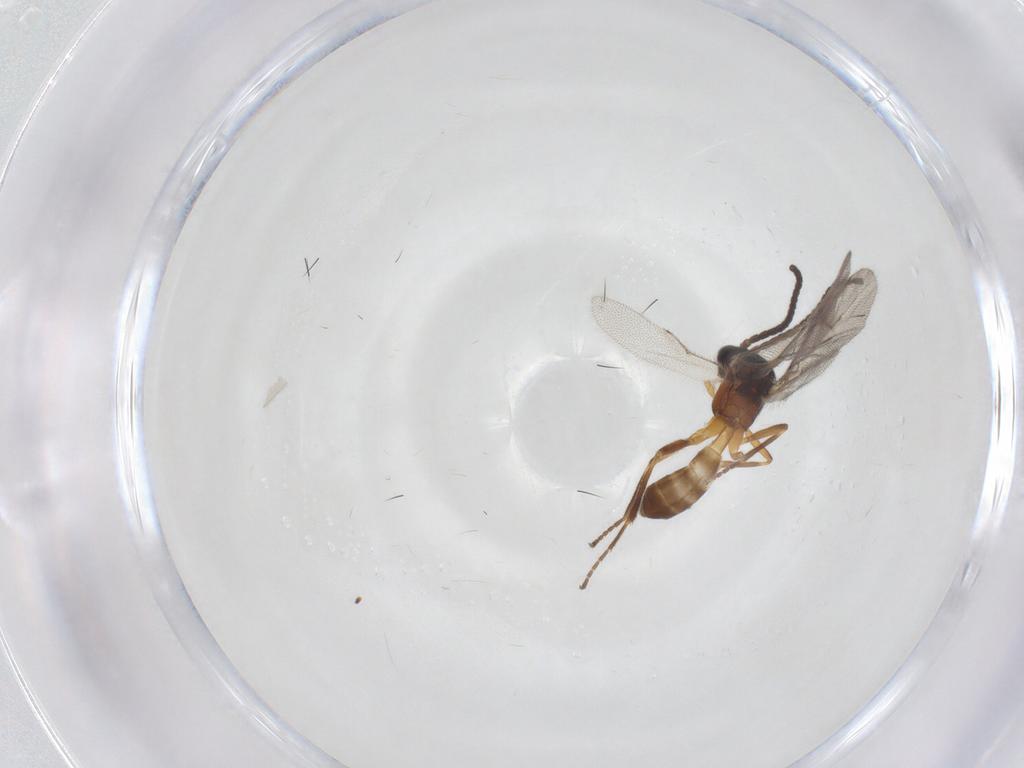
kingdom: Animalia
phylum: Arthropoda
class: Insecta
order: Hymenoptera
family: Braconidae
